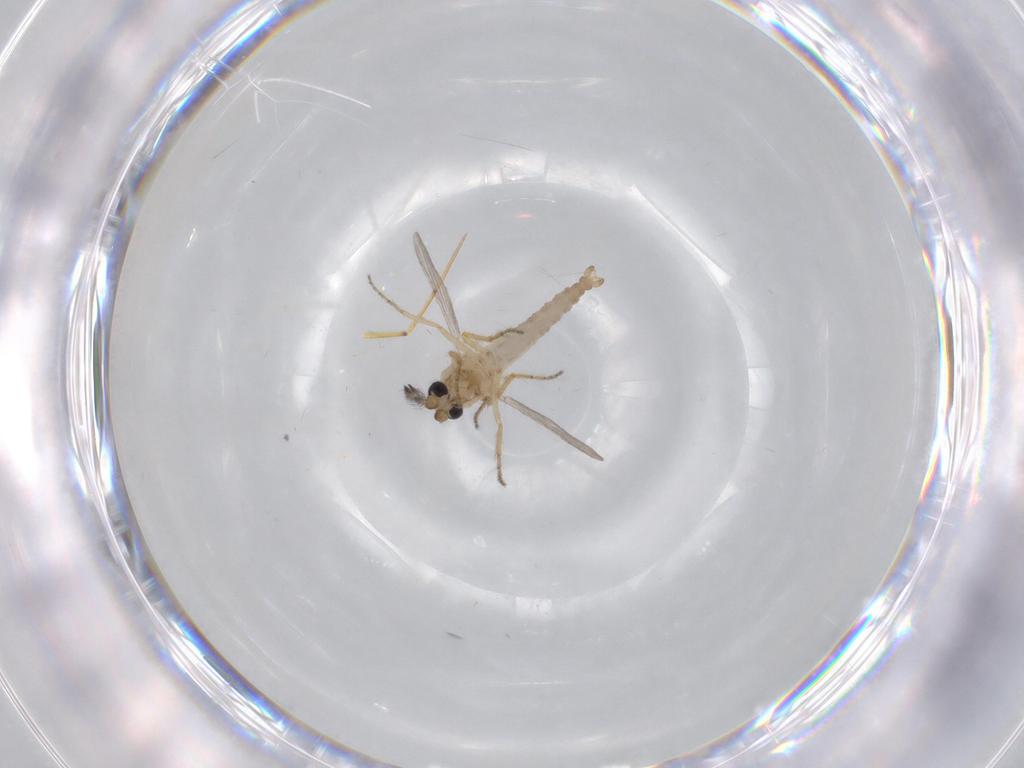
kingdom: Animalia
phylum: Arthropoda
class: Insecta
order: Diptera
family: Ceratopogonidae
